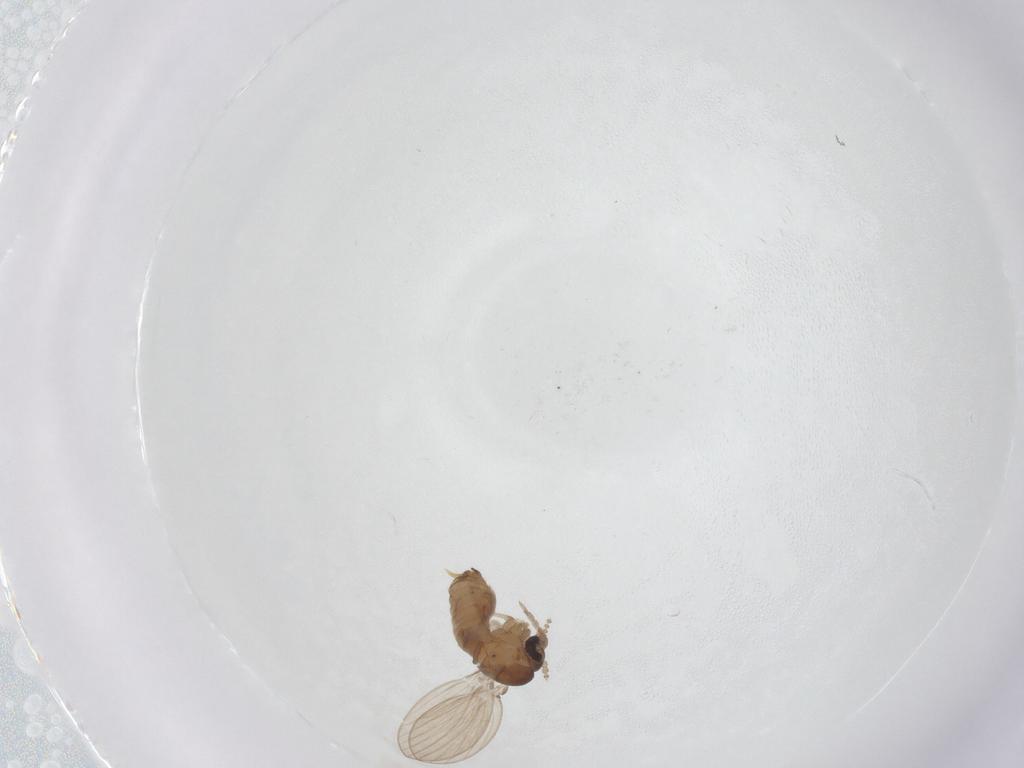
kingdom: Animalia
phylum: Arthropoda
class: Insecta
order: Diptera
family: Psychodidae
